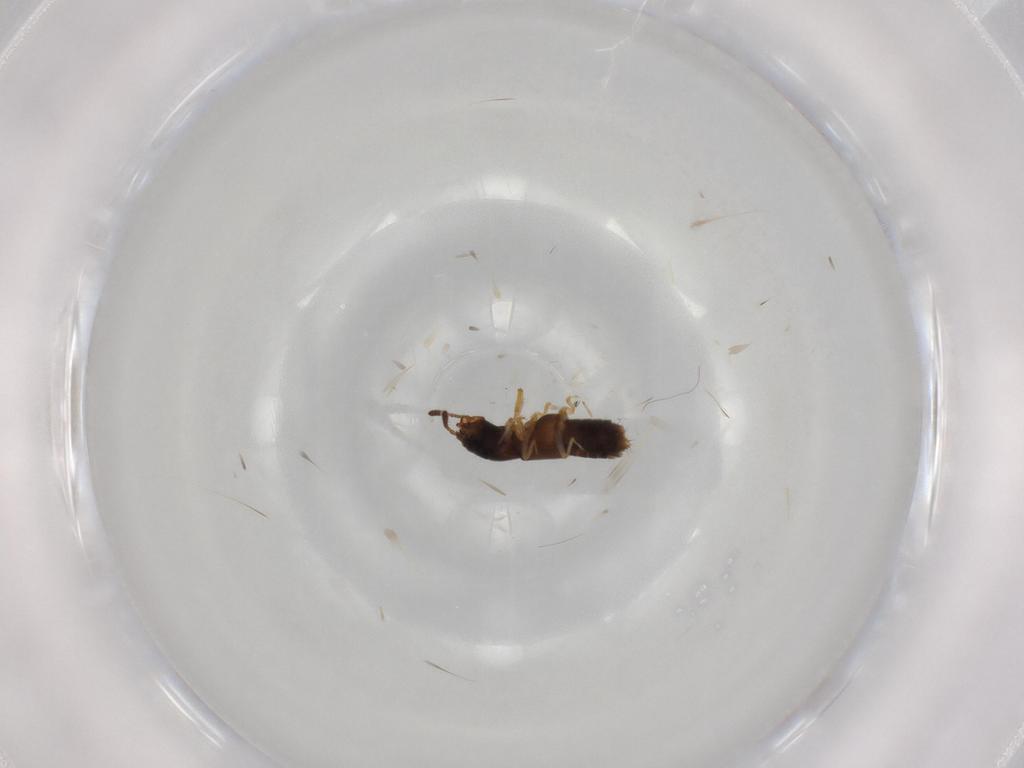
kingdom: Animalia
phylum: Arthropoda
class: Insecta
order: Coleoptera
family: Staphylinidae
